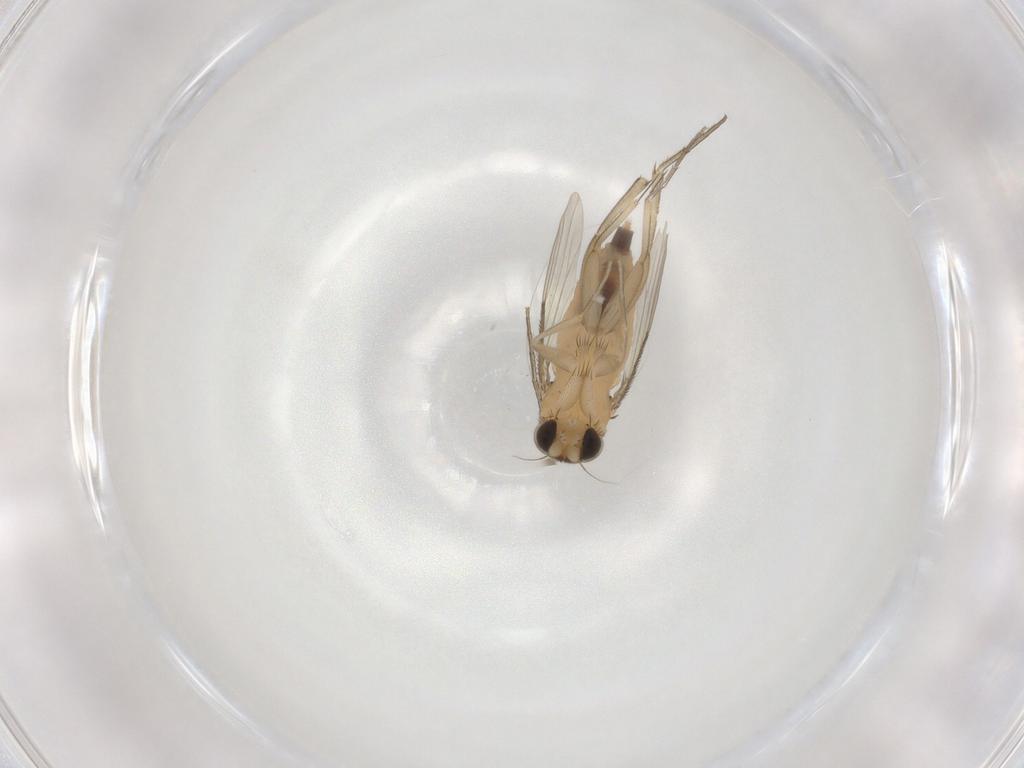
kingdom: Animalia
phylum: Arthropoda
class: Insecta
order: Diptera
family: Phoridae
